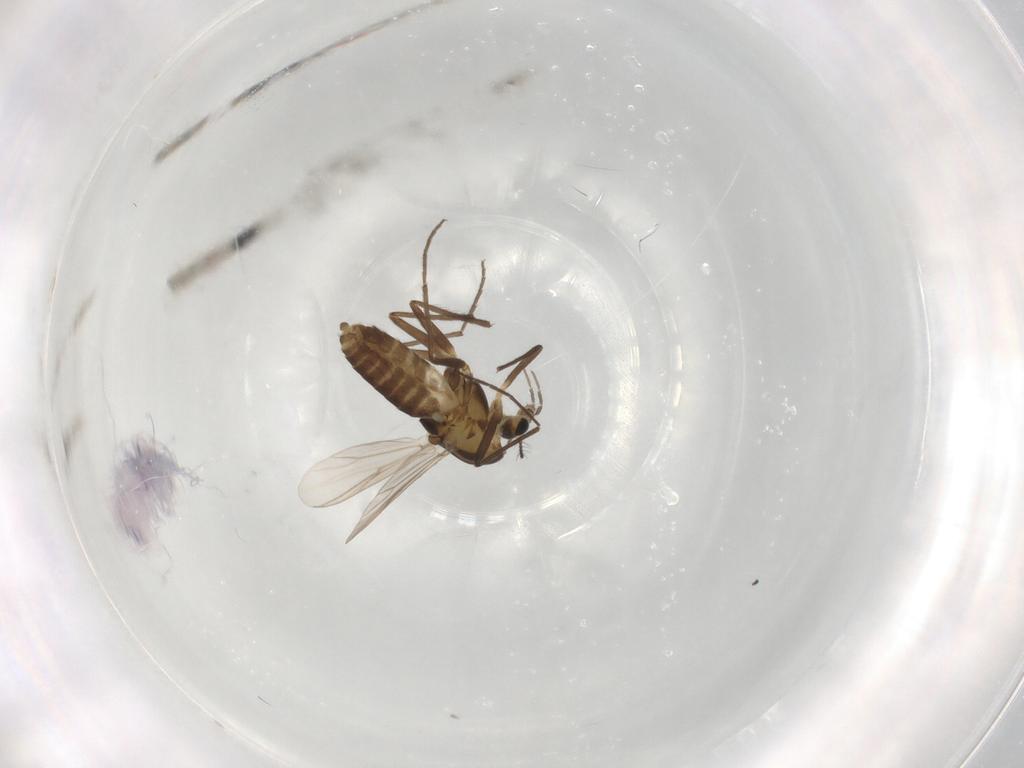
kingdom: Animalia
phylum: Arthropoda
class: Insecta
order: Diptera
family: Chironomidae
